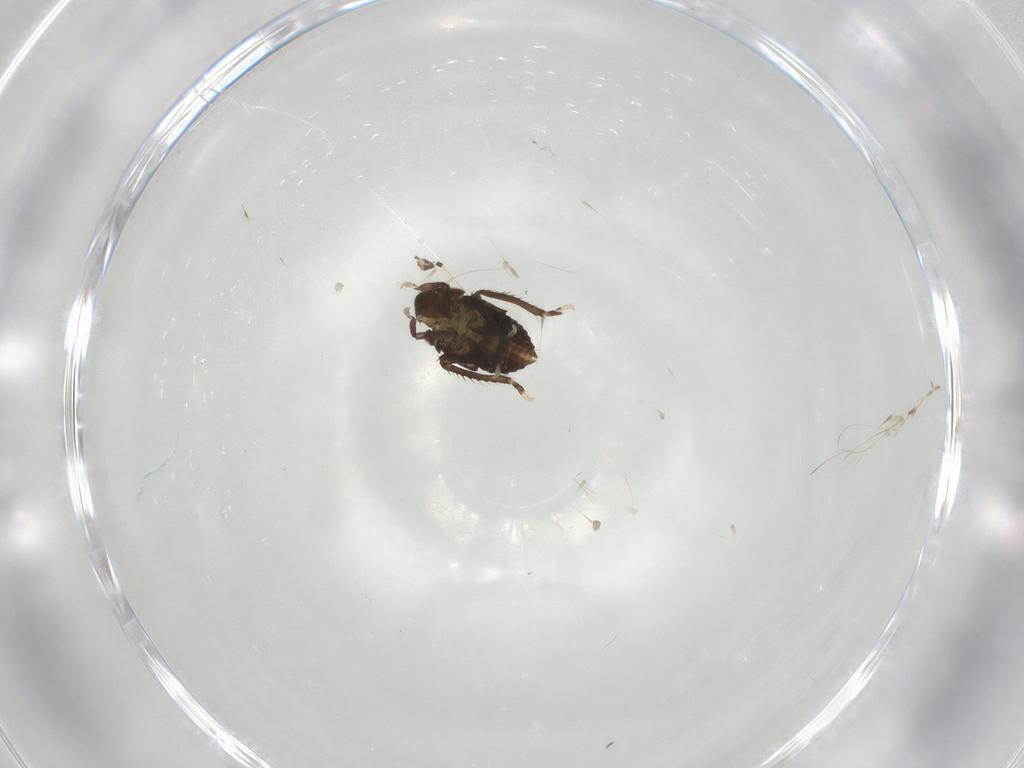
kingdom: Animalia
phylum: Arthropoda
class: Insecta
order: Hemiptera
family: Cicadellidae
